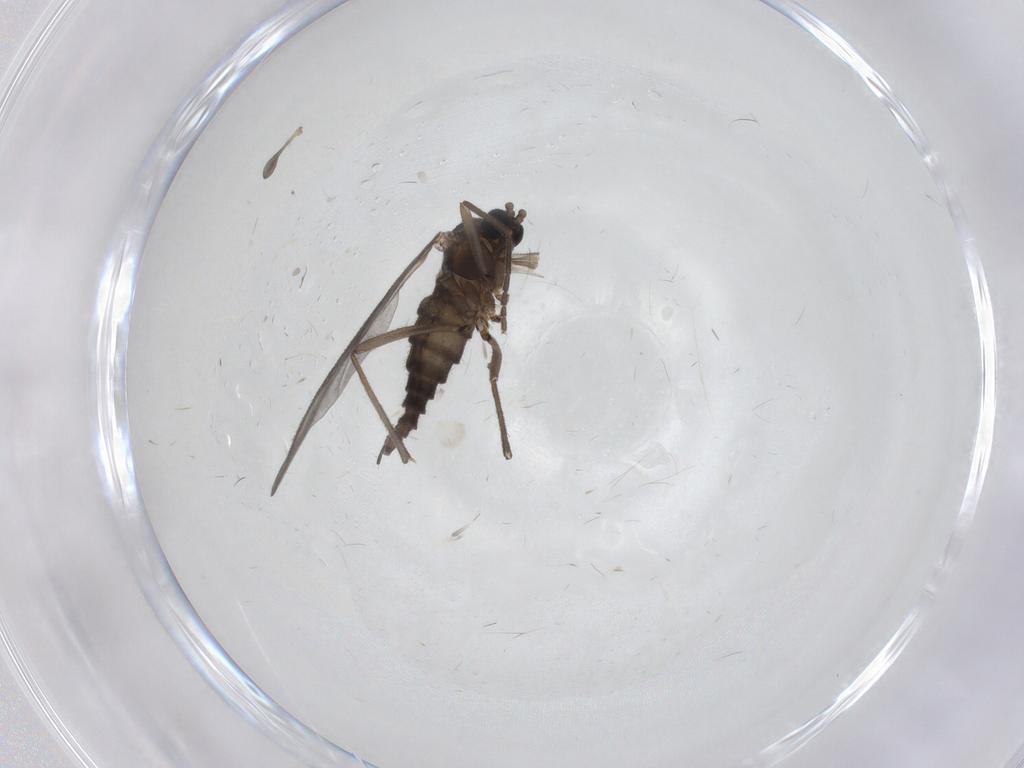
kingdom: Animalia
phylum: Arthropoda
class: Insecta
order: Diptera
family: Sciaridae
